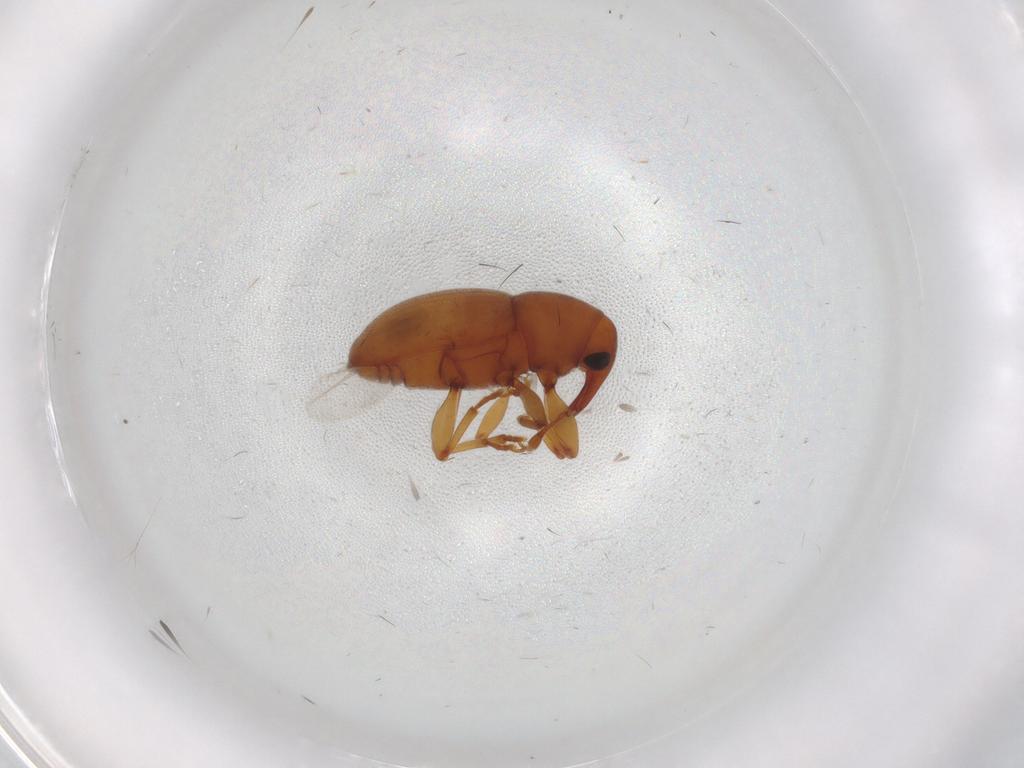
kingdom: Animalia
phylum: Arthropoda
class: Insecta
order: Coleoptera
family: Curculionidae
